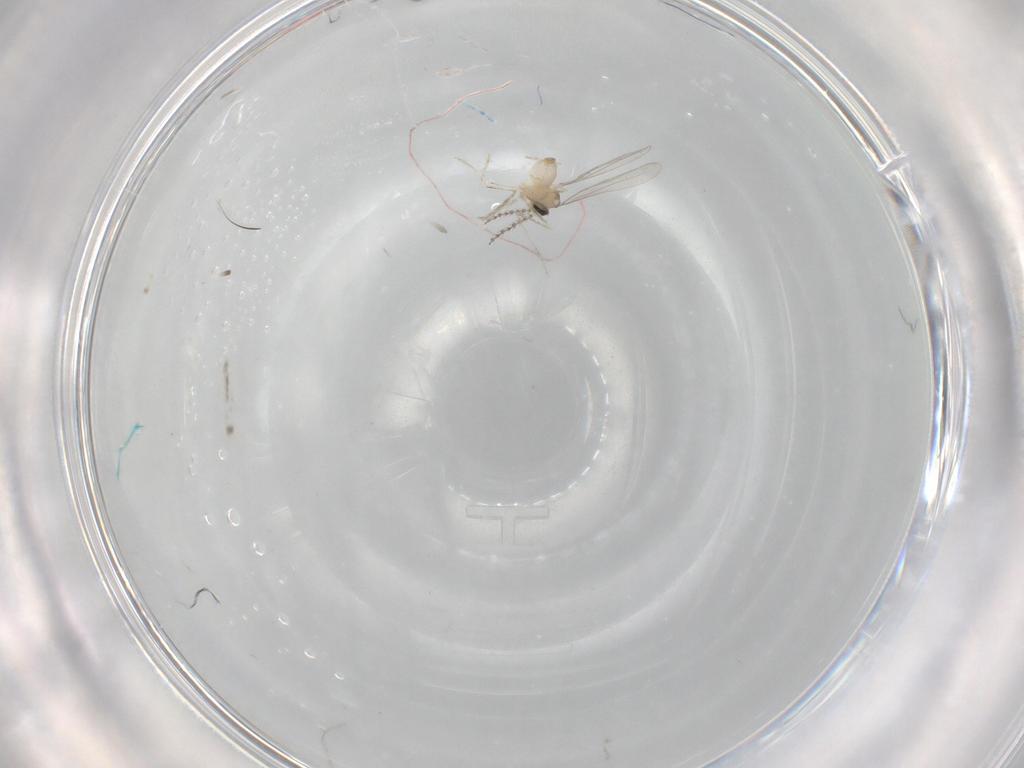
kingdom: Animalia
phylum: Arthropoda
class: Insecta
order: Diptera
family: Cecidomyiidae
